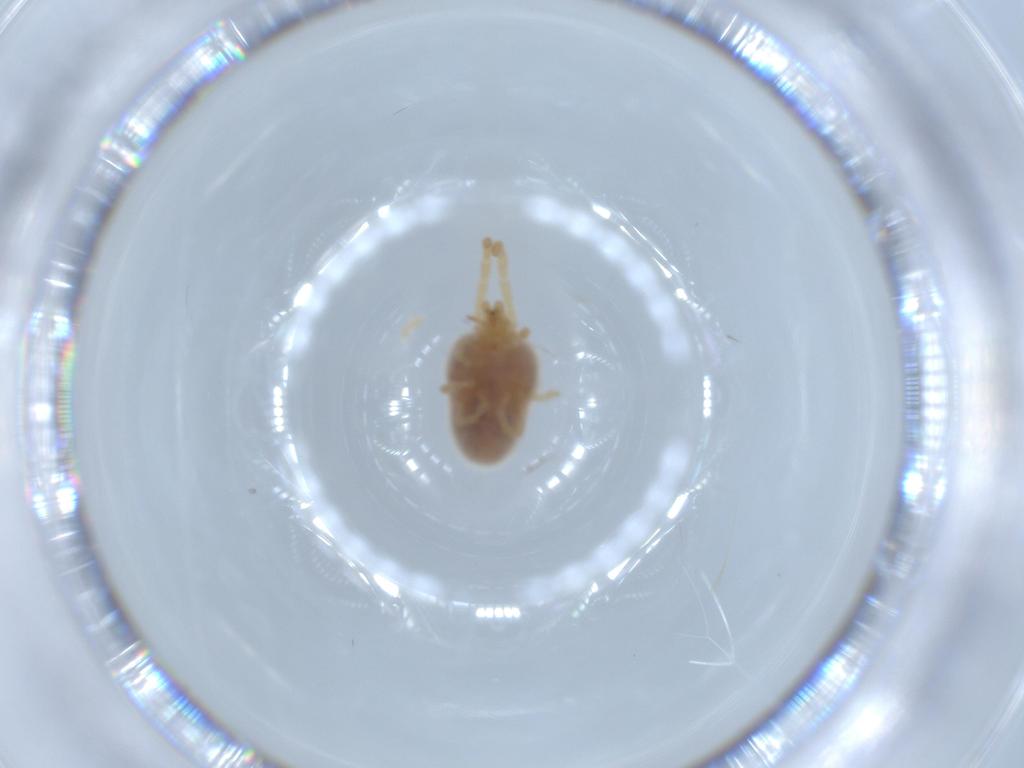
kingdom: Animalia
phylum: Arthropoda
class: Arachnida
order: Trombidiformes
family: Trombidiidae
